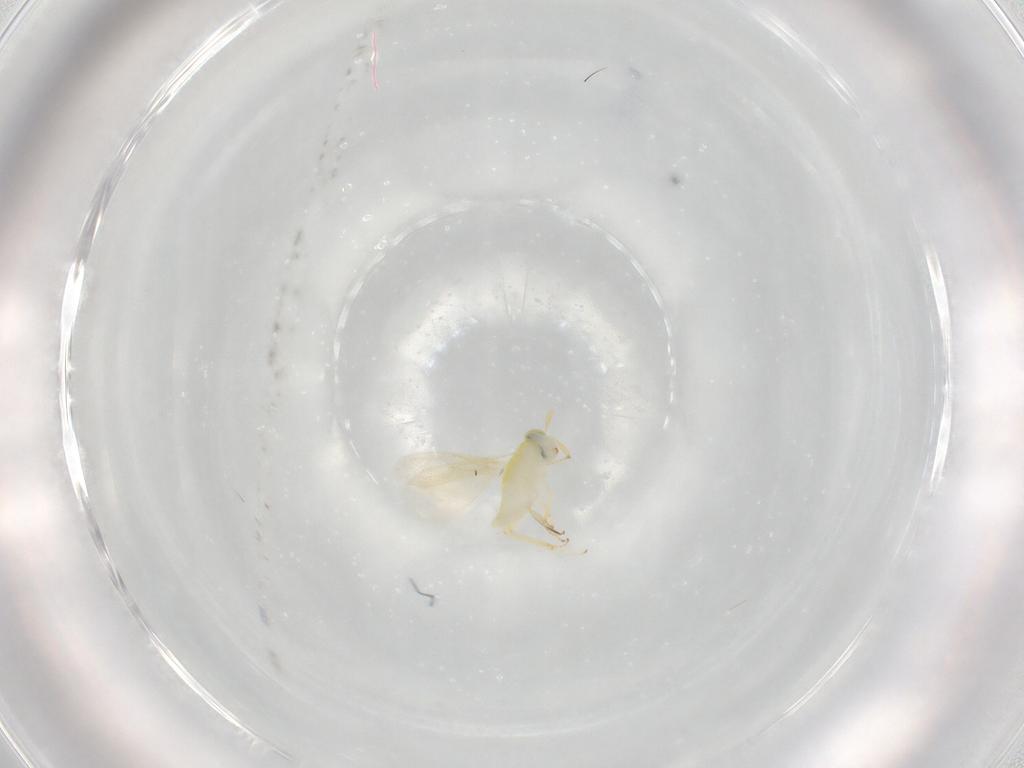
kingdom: Animalia
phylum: Arthropoda
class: Insecta
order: Hymenoptera
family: Aphelinidae
